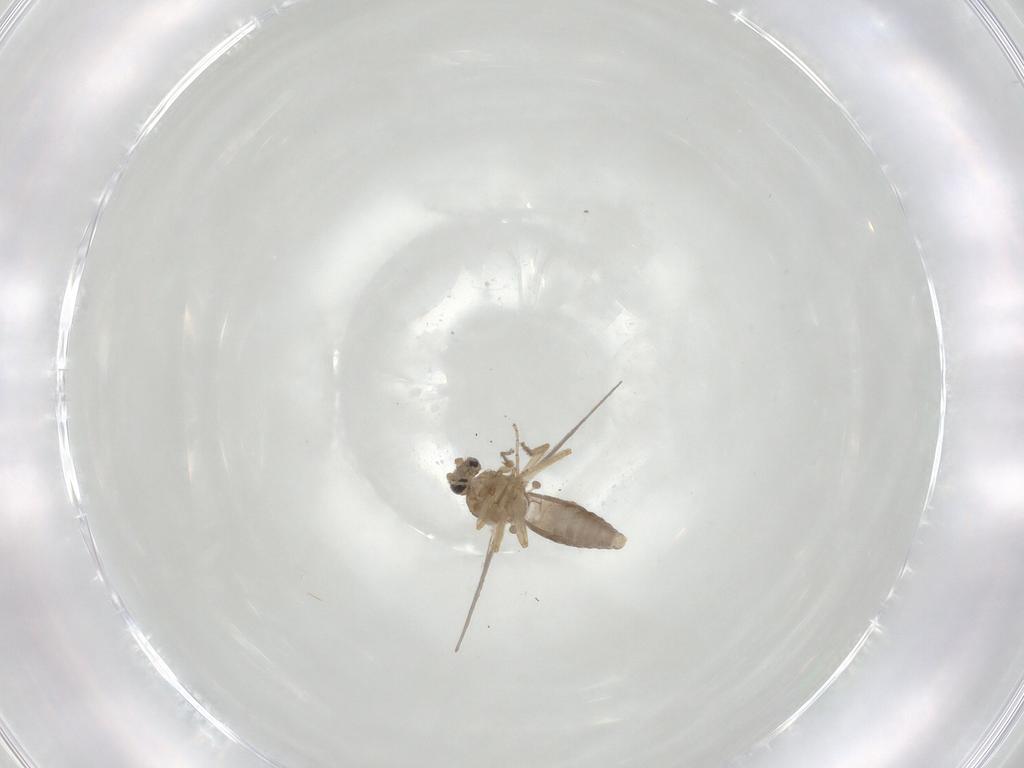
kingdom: Animalia
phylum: Arthropoda
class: Insecta
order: Diptera
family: Ceratopogonidae
